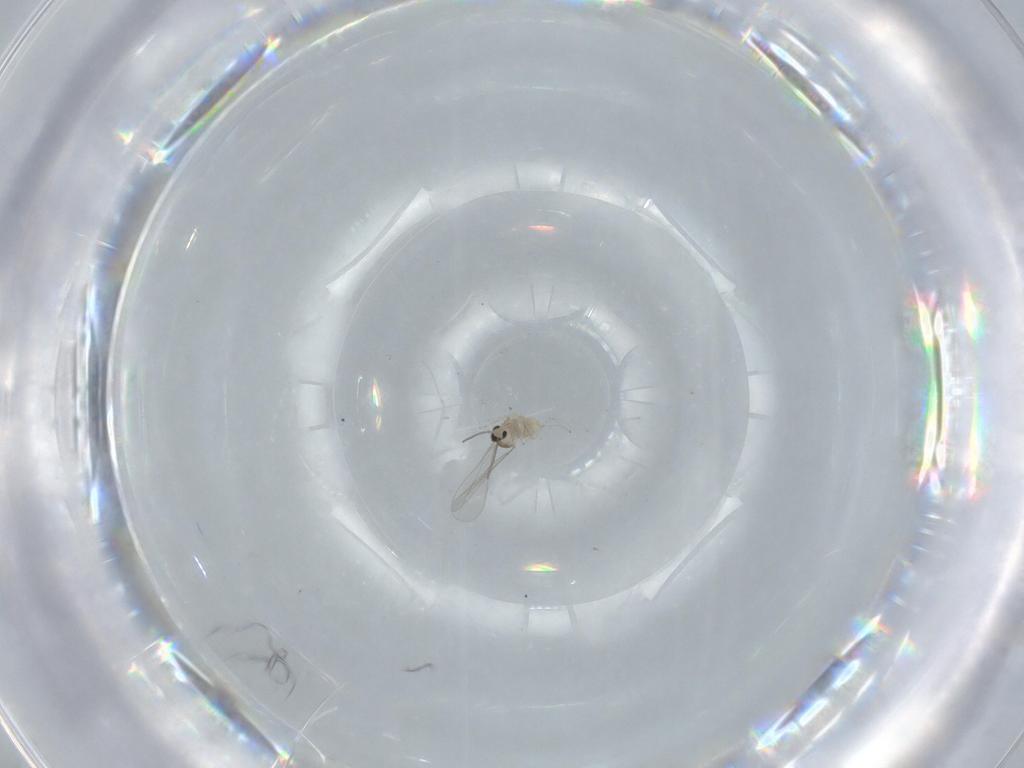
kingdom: Animalia
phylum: Arthropoda
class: Insecta
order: Diptera
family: Cecidomyiidae
